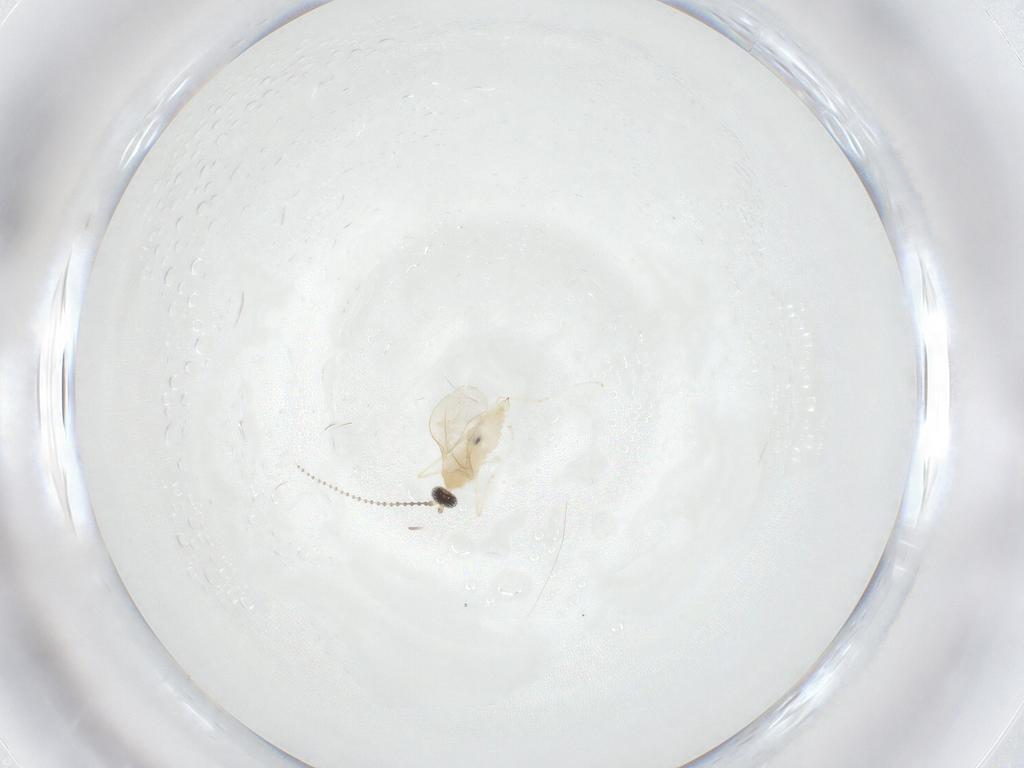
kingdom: Animalia
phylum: Arthropoda
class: Insecta
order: Diptera
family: Cecidomyiidae
